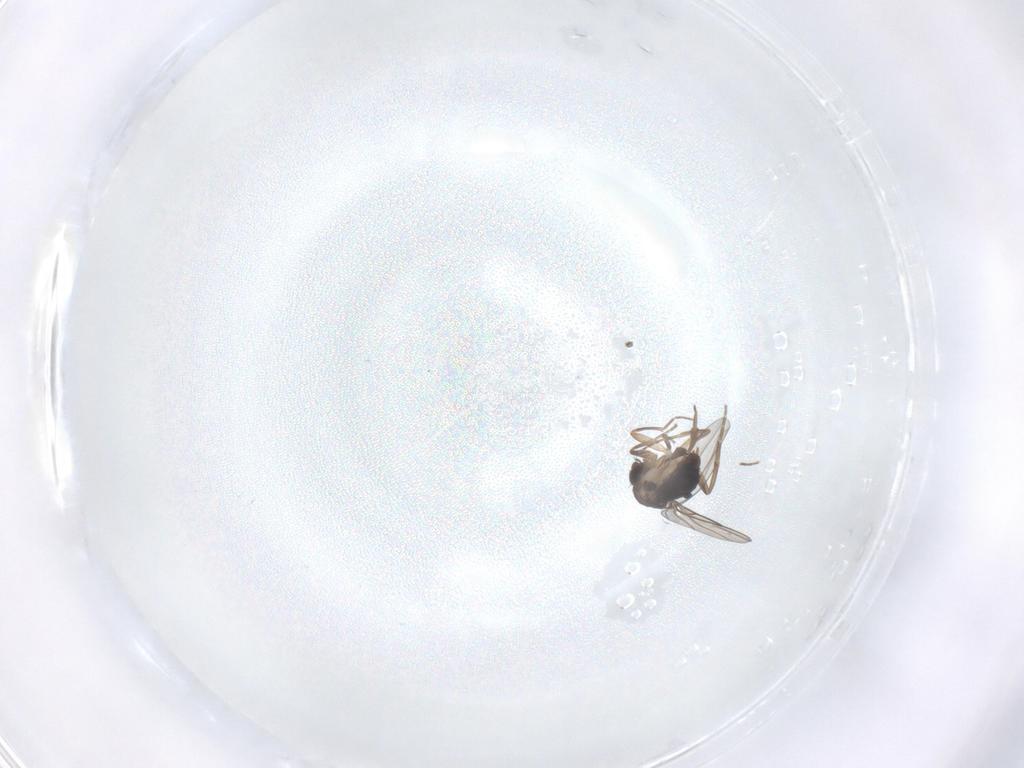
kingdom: Animalia
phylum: Arthropoda
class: Insecta
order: Diptera
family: Phoridae
